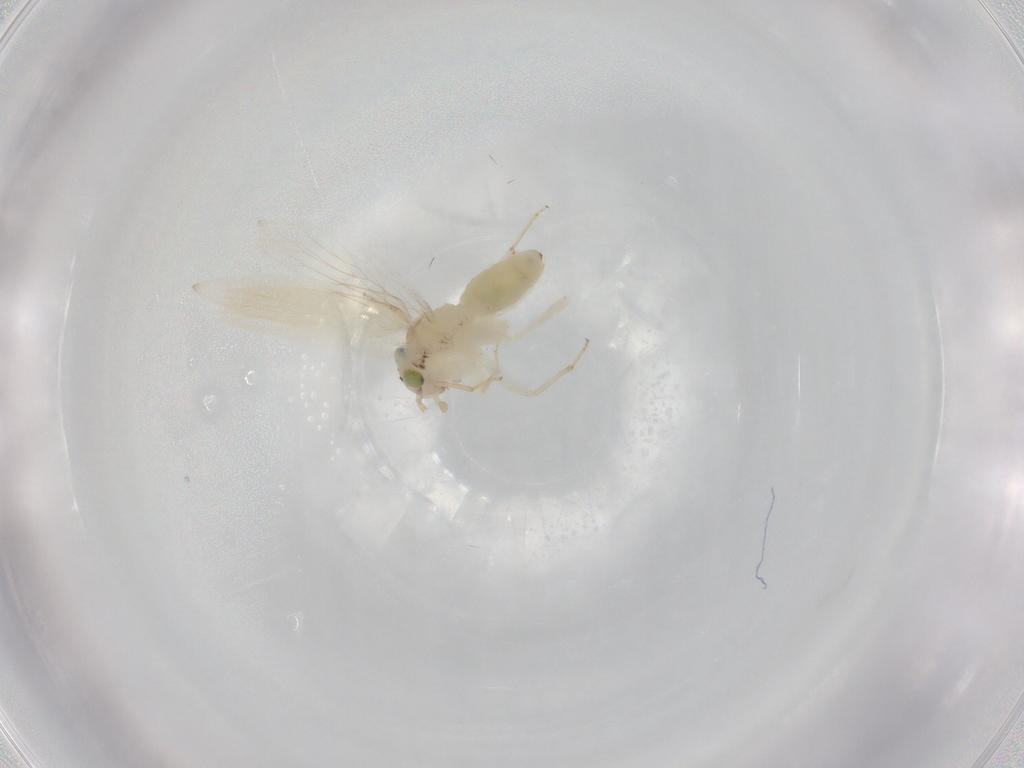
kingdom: Animalia
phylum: Arthropoda
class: Insecta
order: Psocodea
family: Lepidopsocidae
